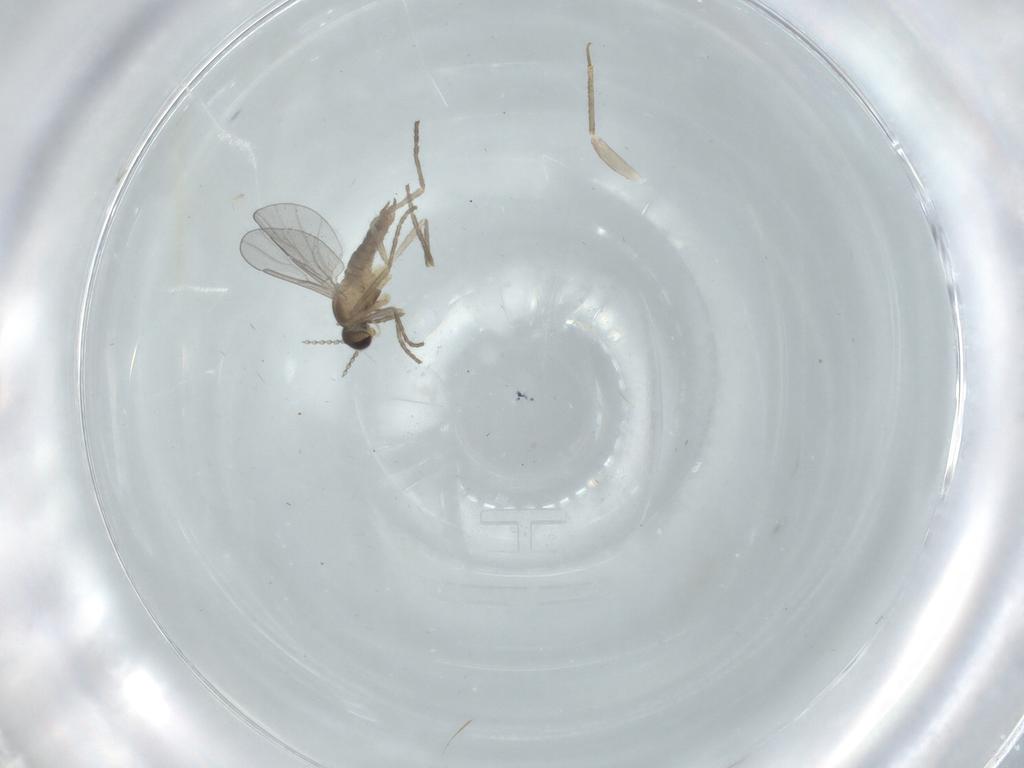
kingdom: Animalia
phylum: Arthropoda
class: Insecta
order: Diptera
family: Cecidomyiidae
